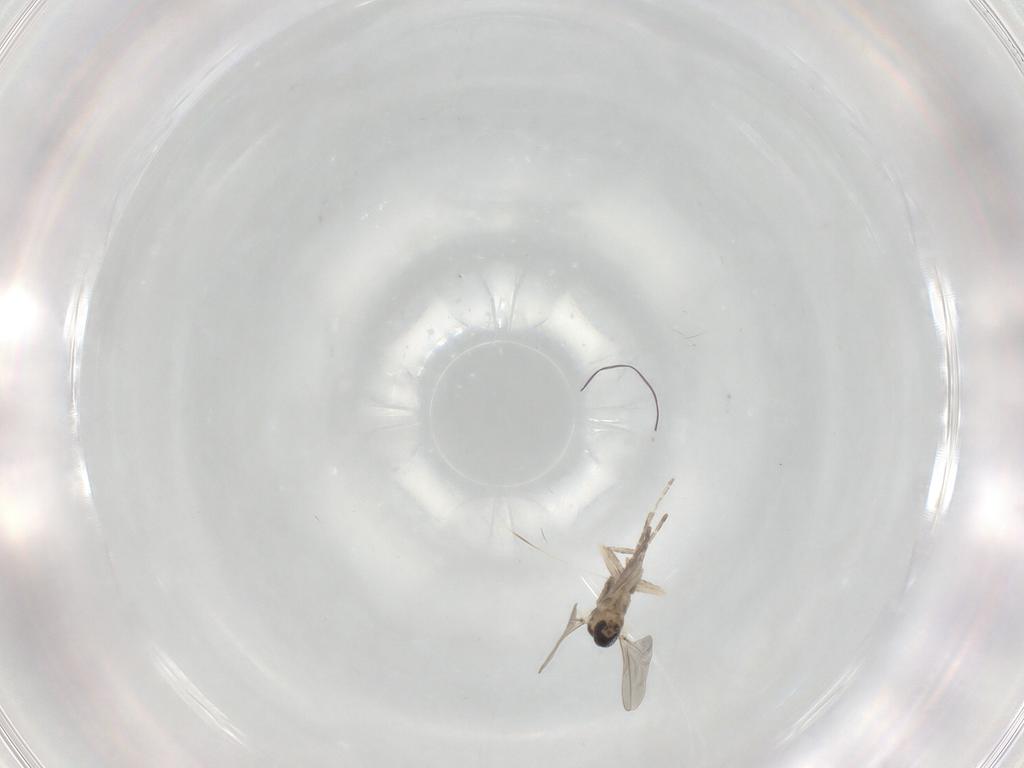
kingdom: Animalia
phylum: Arthropoda
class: Insecta
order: Diptera
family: Cecidomyiidae
